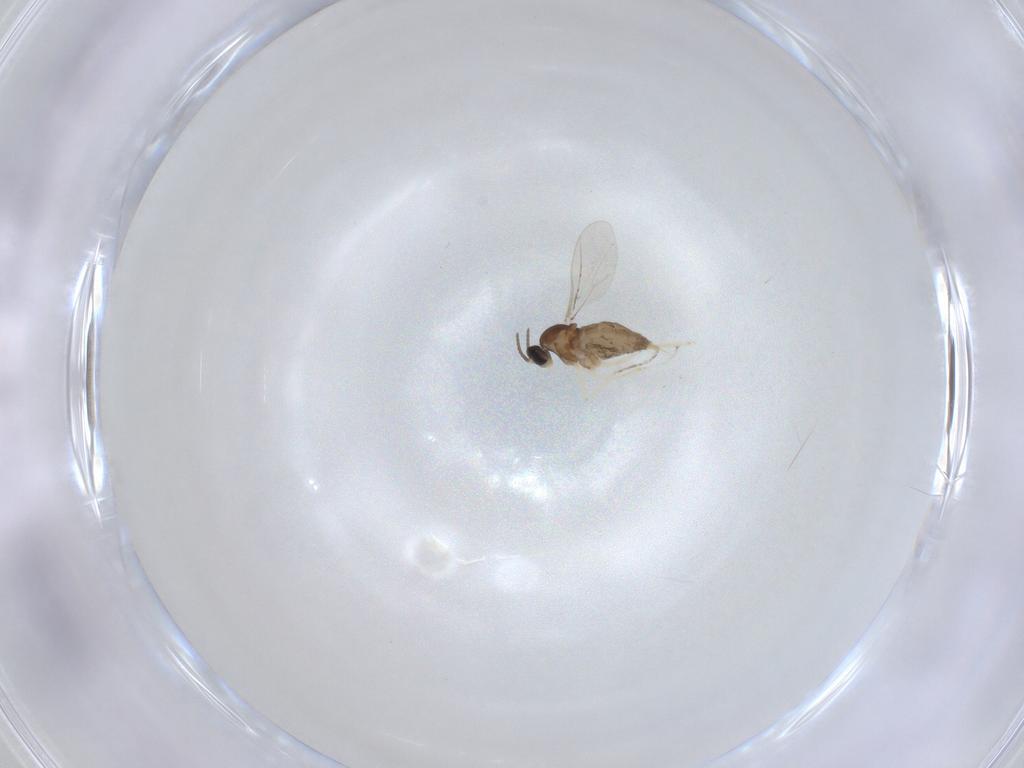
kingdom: Animalia
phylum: Arthropoda
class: Insecta
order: Diptera
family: Cecidomyiidae
